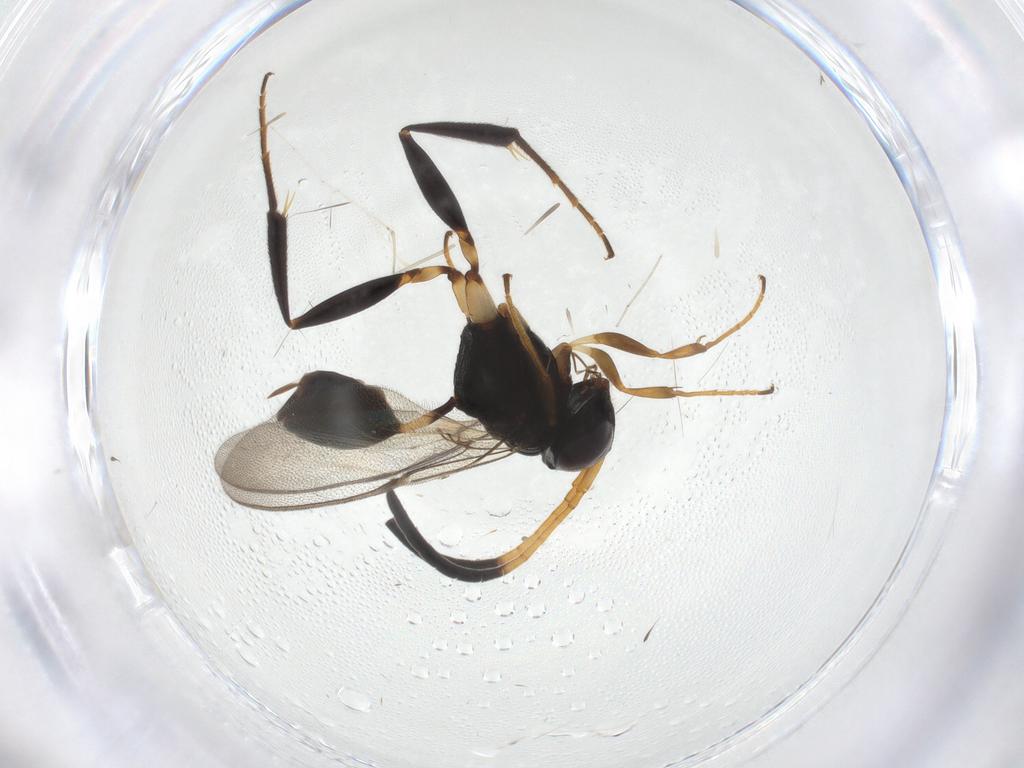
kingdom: Animalia
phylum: Arthropoda
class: Insecta
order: Hymenoptera
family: Evaniidae
